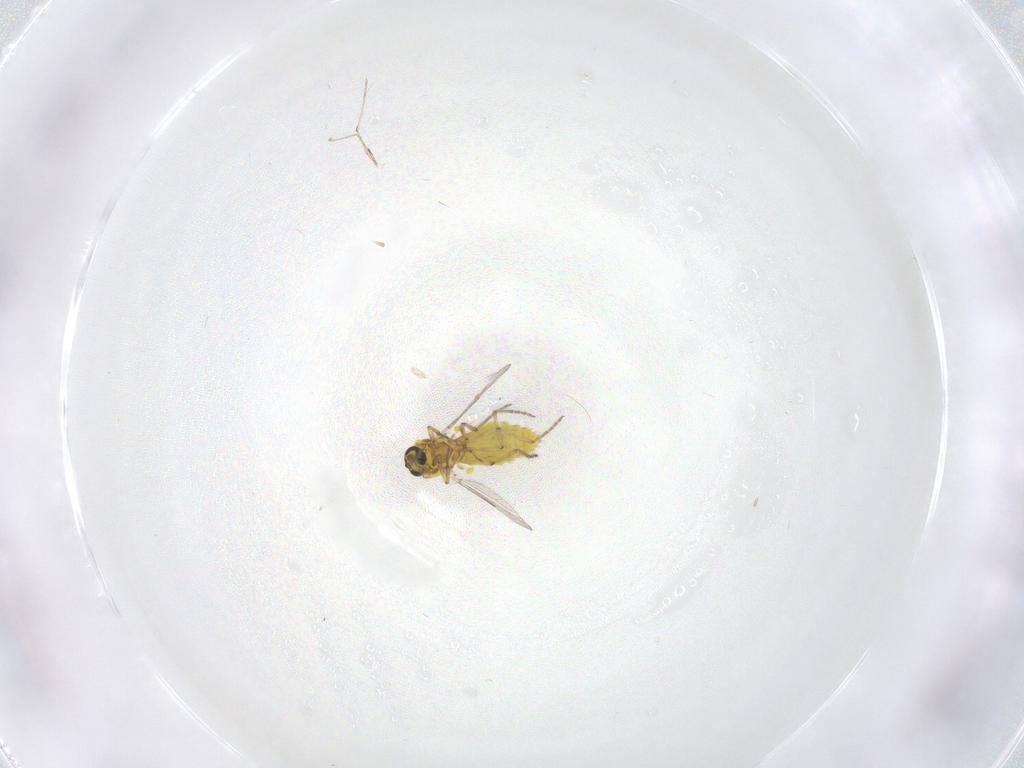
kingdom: Animalia
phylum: Arthropoda
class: Insecta
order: Diptera
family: Ceratopogonidae
